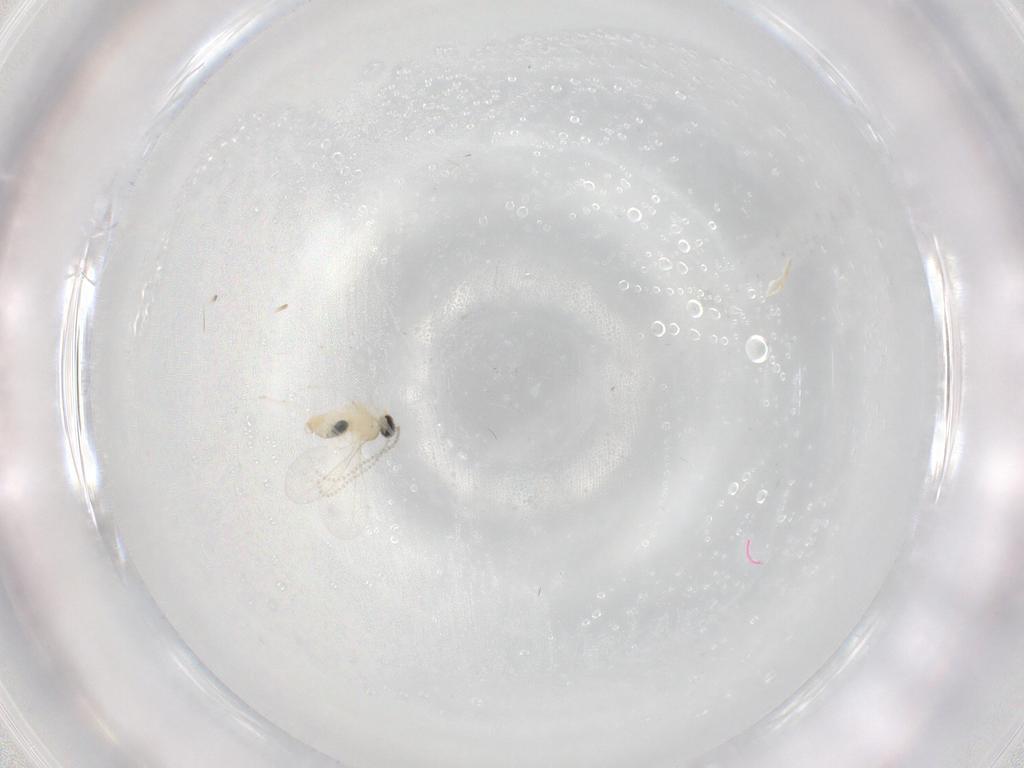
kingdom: Animalia
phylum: Arthropoda
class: Insecta
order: Diptera
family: Cecidomyiidae
